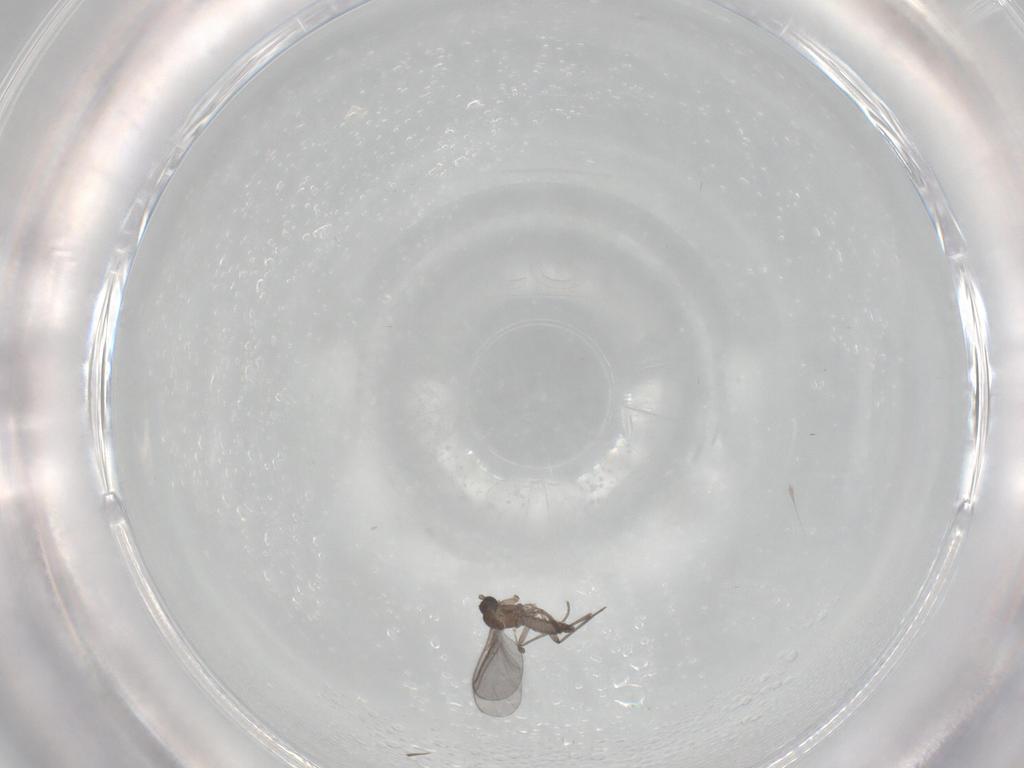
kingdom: Animalia
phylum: Arthropoda
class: Insecta
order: Diptera
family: Sciaridae
